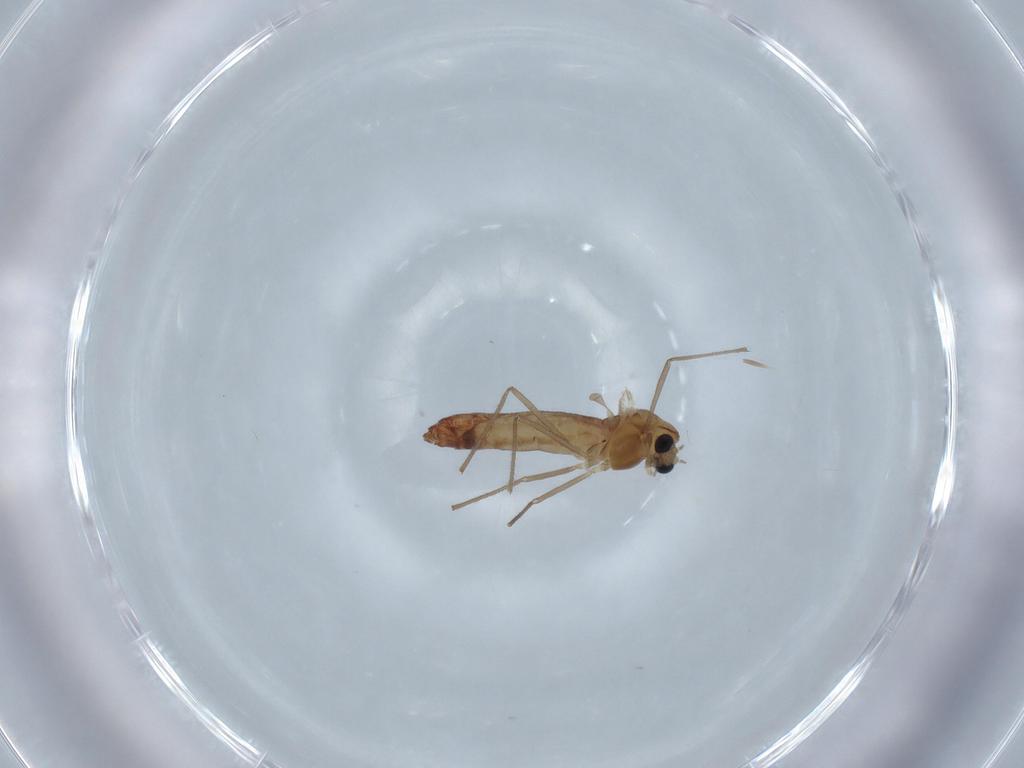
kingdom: Animalia
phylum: Arthropoda
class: Insecta
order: Diptera
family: Chironomidae
